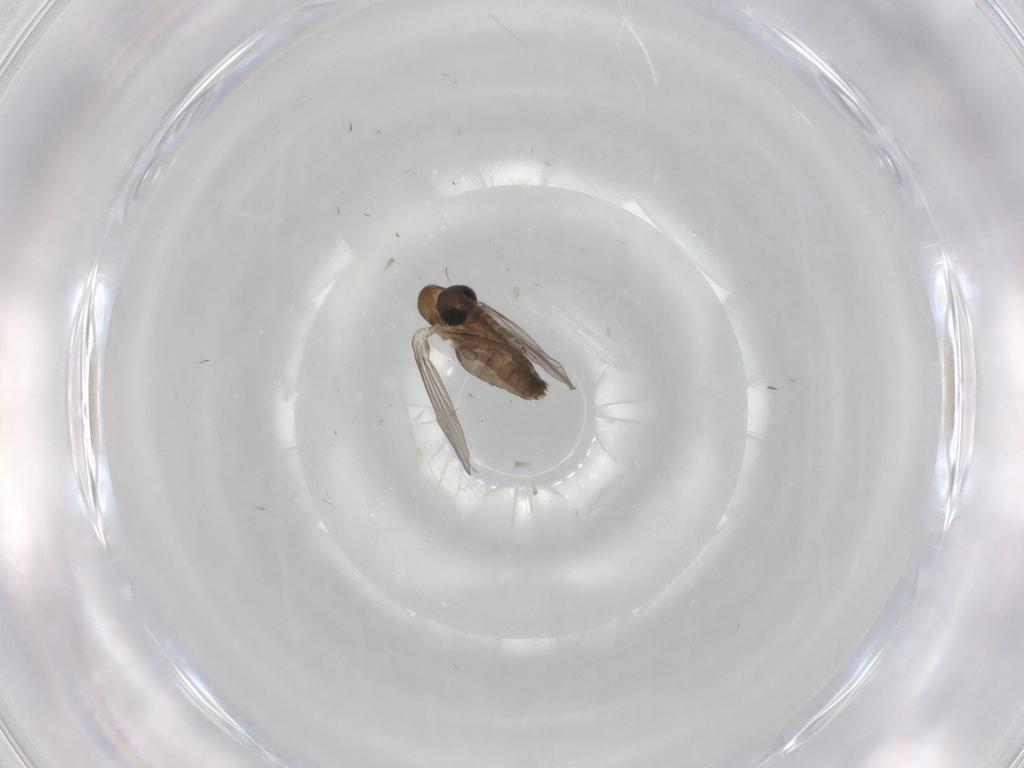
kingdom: Animalia
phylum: Arthropoda
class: Insecta
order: Diptera
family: Cecidomyiidae
